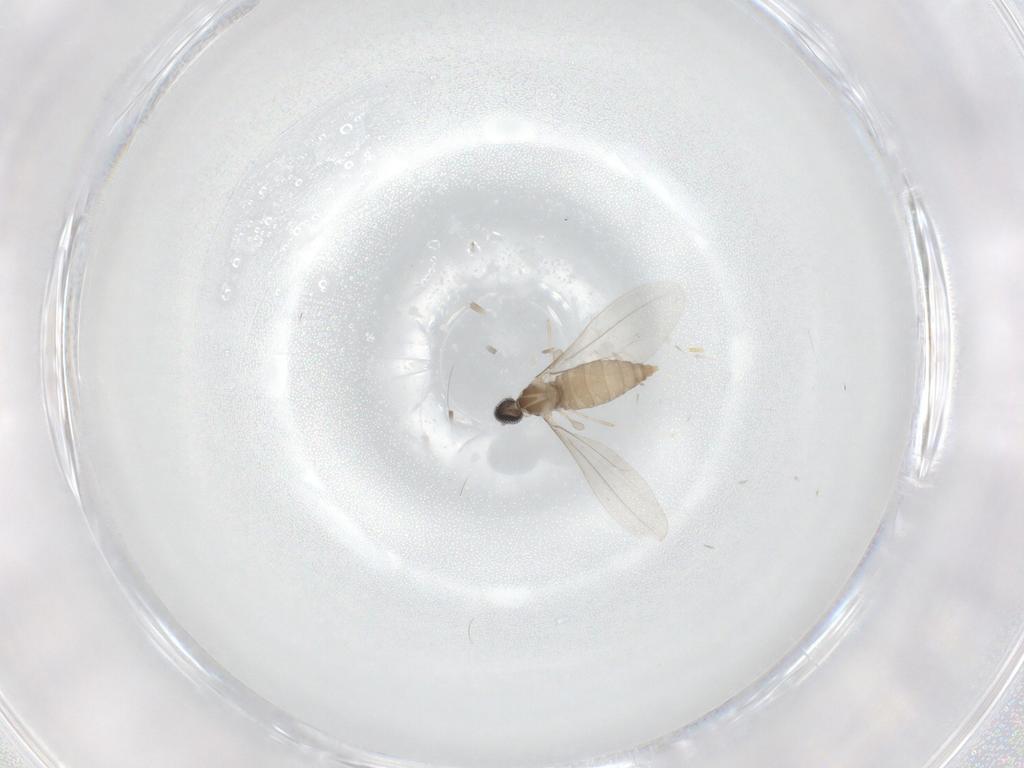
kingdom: Animalia
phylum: Arthropoda
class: Insecta
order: Diptera
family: Cecidomyiidae
